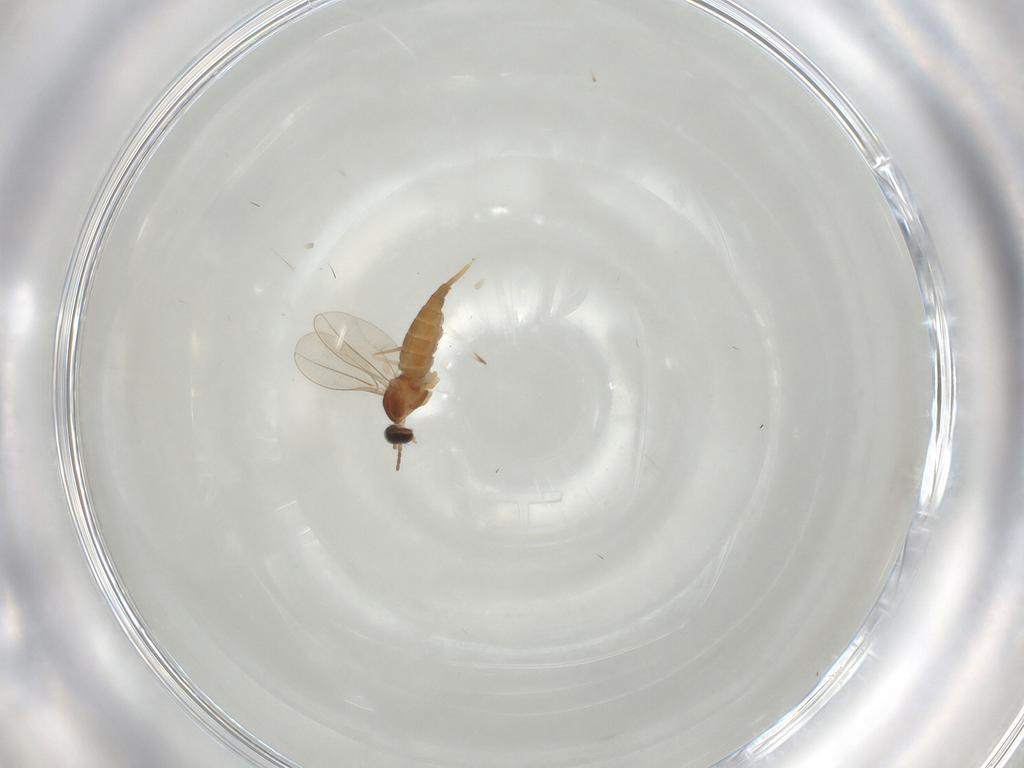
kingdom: Animalia
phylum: Arthropoda
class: Insecta
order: Diptera
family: Cecidomyiidae
